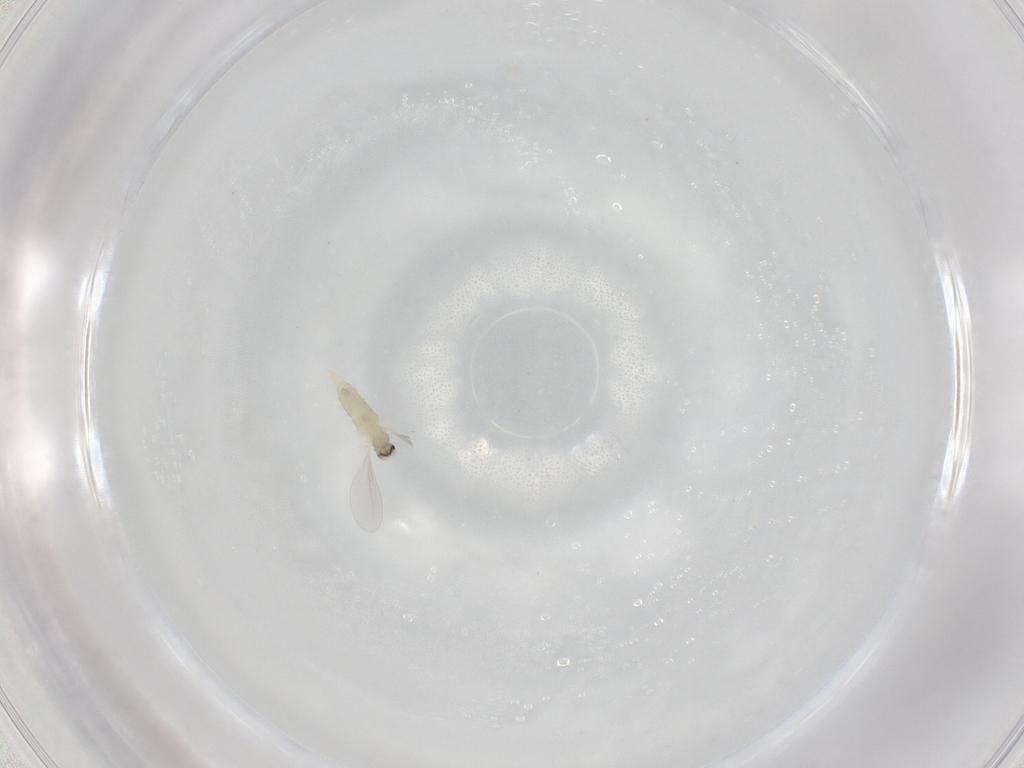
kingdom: Animalia
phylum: Arthropoda
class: Insecta
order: Diptera
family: Cecidomyiidae
